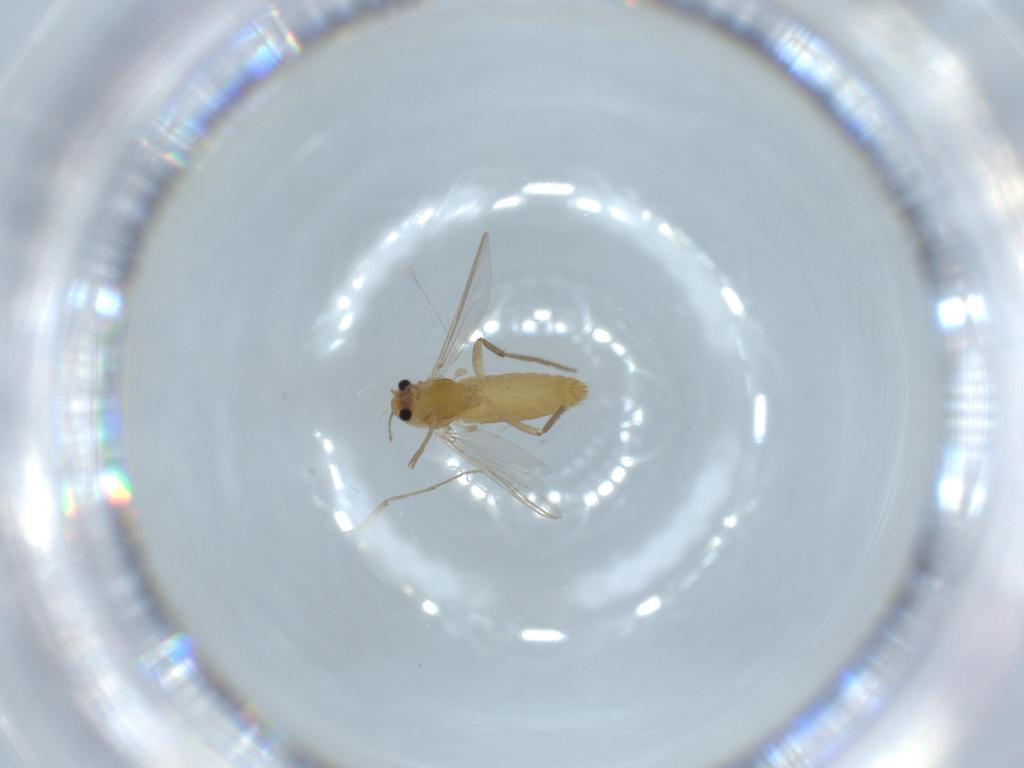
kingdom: Animalia
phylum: Arthropoda
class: Insecta
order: Diptera
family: Chironomidae
